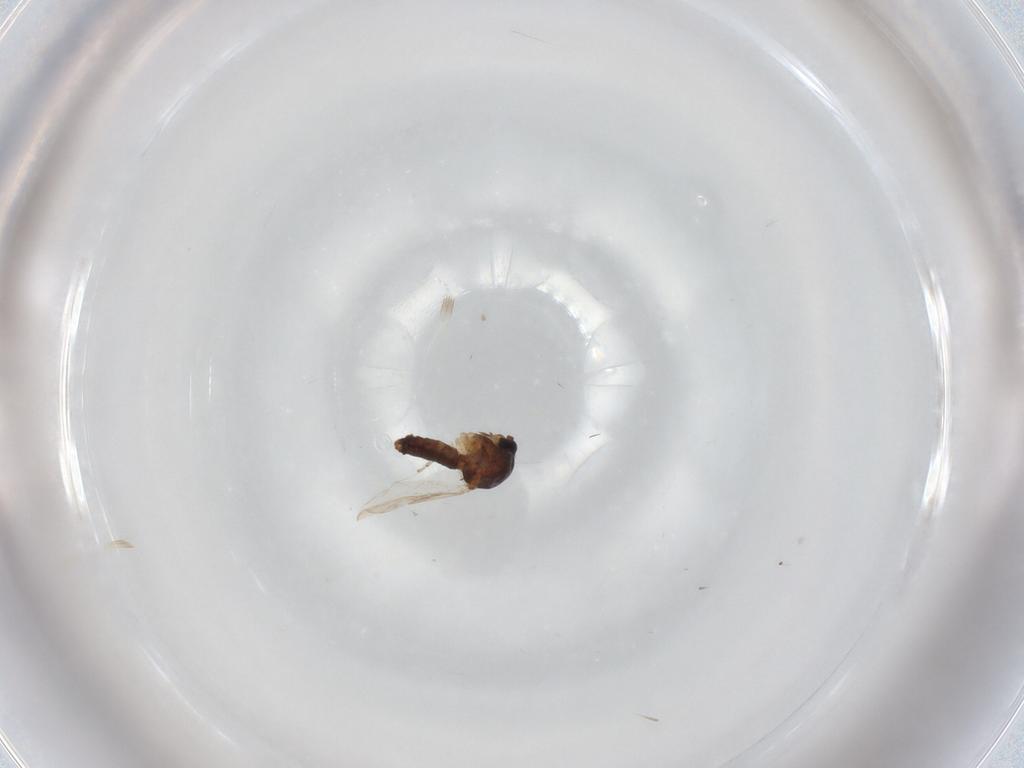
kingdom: Animalia
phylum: Arthropoda
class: Insecta
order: Diptera
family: Ceratopogonidae
